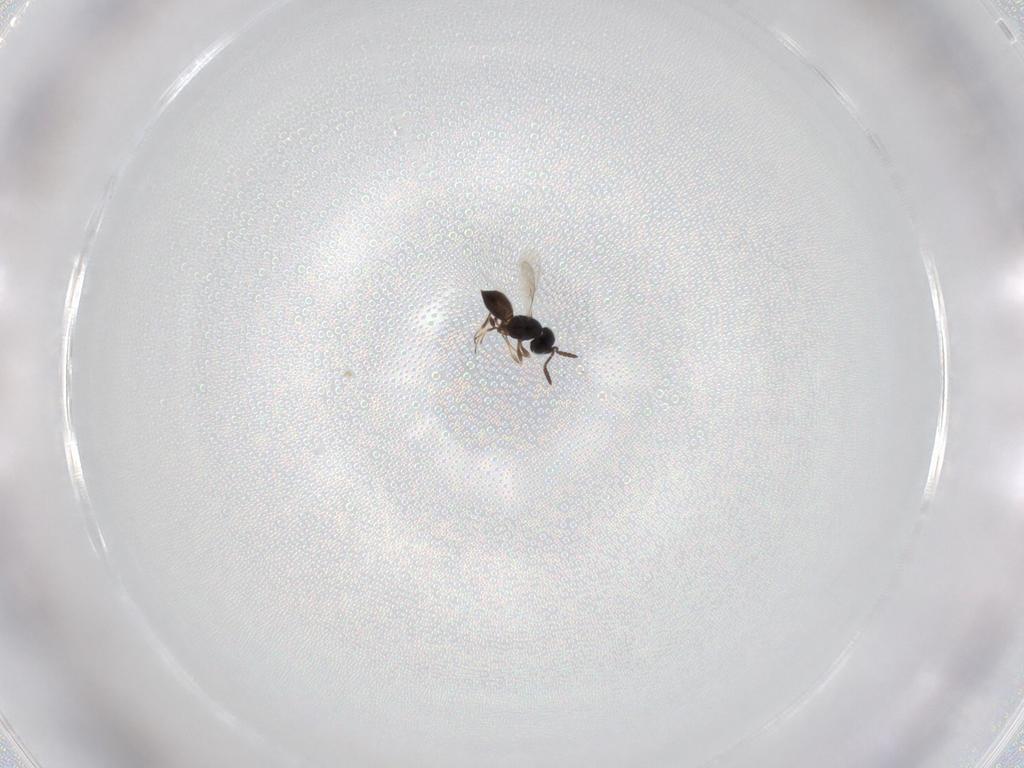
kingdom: Animalia
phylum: Arthropoda
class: Insecta
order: Hymenoptera
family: Scelionidae
